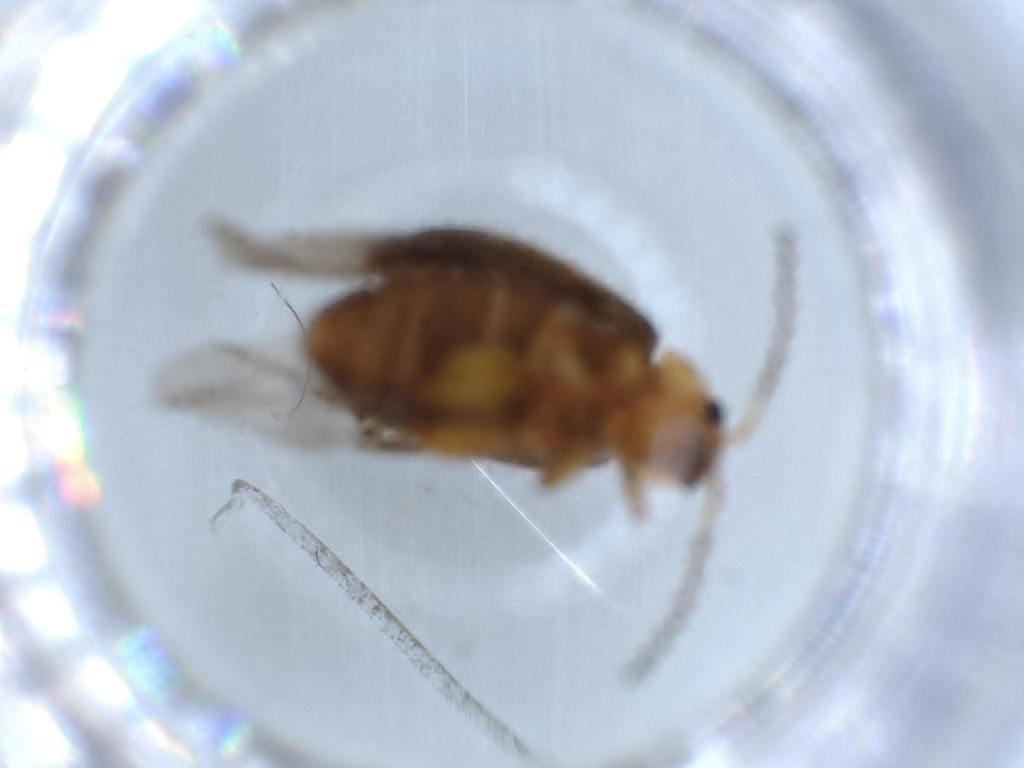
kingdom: Animalia
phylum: Arthropoda
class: Insecta
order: Coleoptera
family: Chrysomelidae
